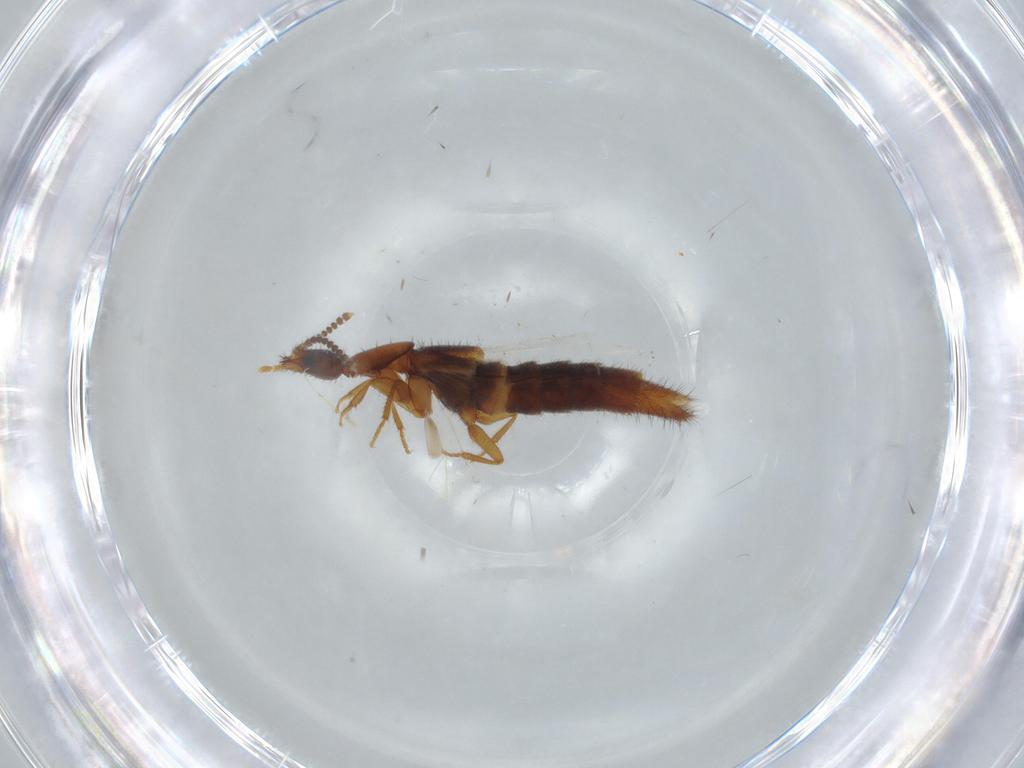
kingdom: Animalia
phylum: Arthropoda
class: Insecta
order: Coleoptera
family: Staphylinidae
